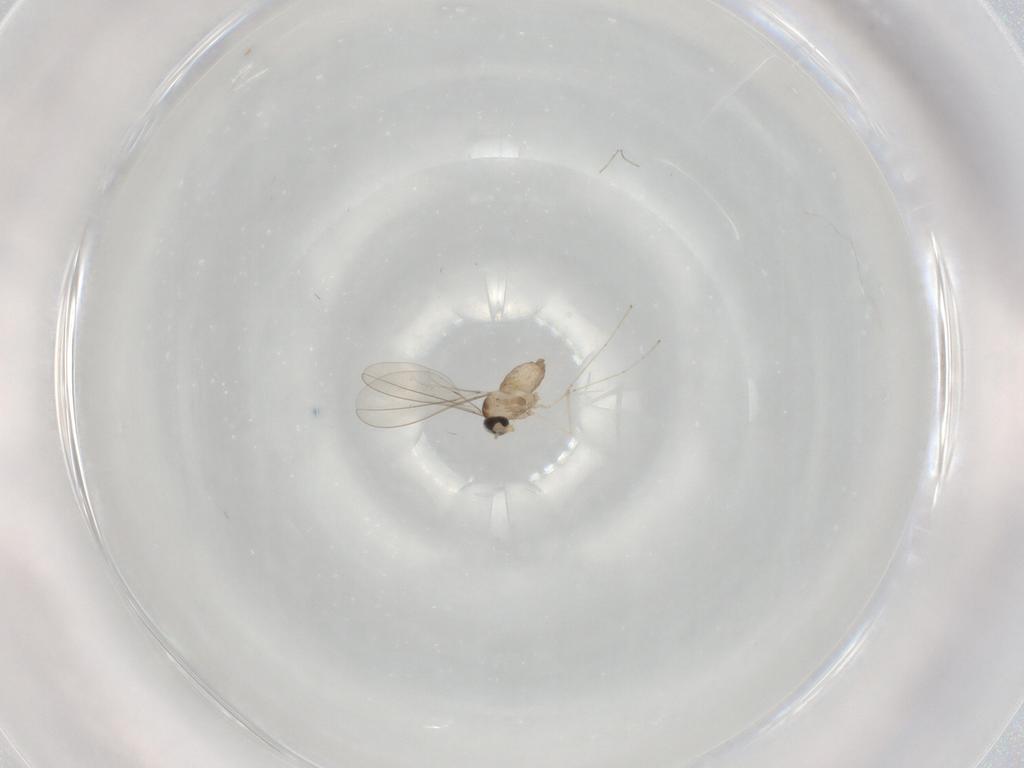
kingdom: Animalia
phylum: Arthropoda
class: Insecta
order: Diptera
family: Cecidomyiidae
